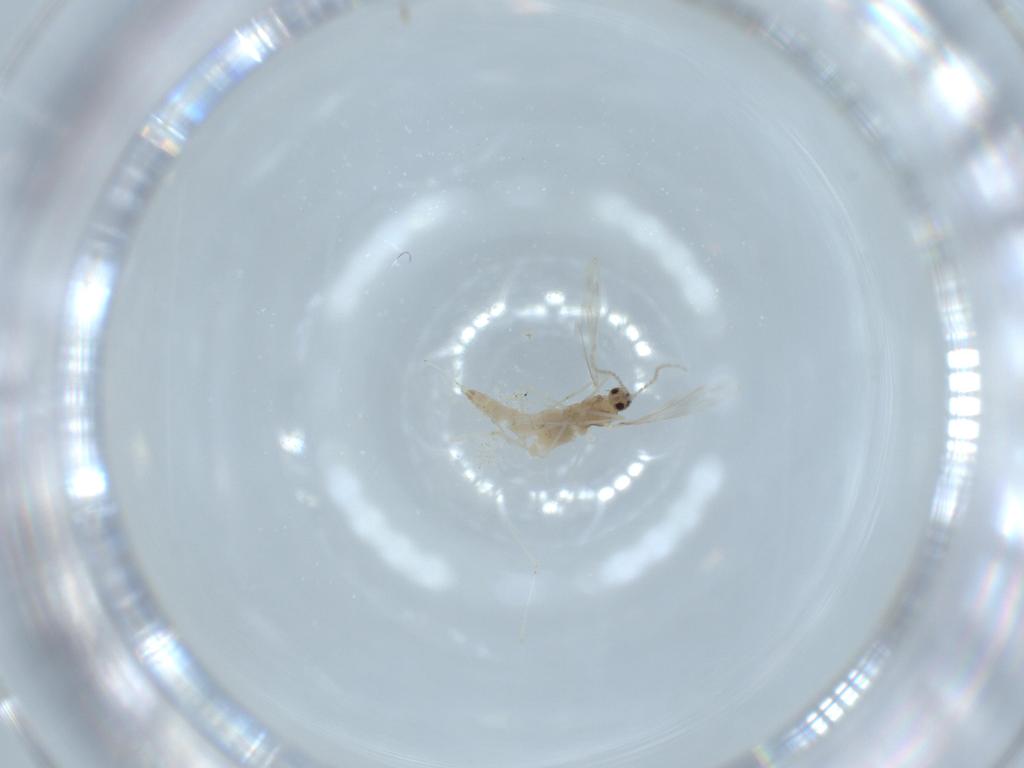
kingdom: Animalia
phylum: Arthropoda
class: Insecta
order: Diptera
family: Cecidomyiidae
